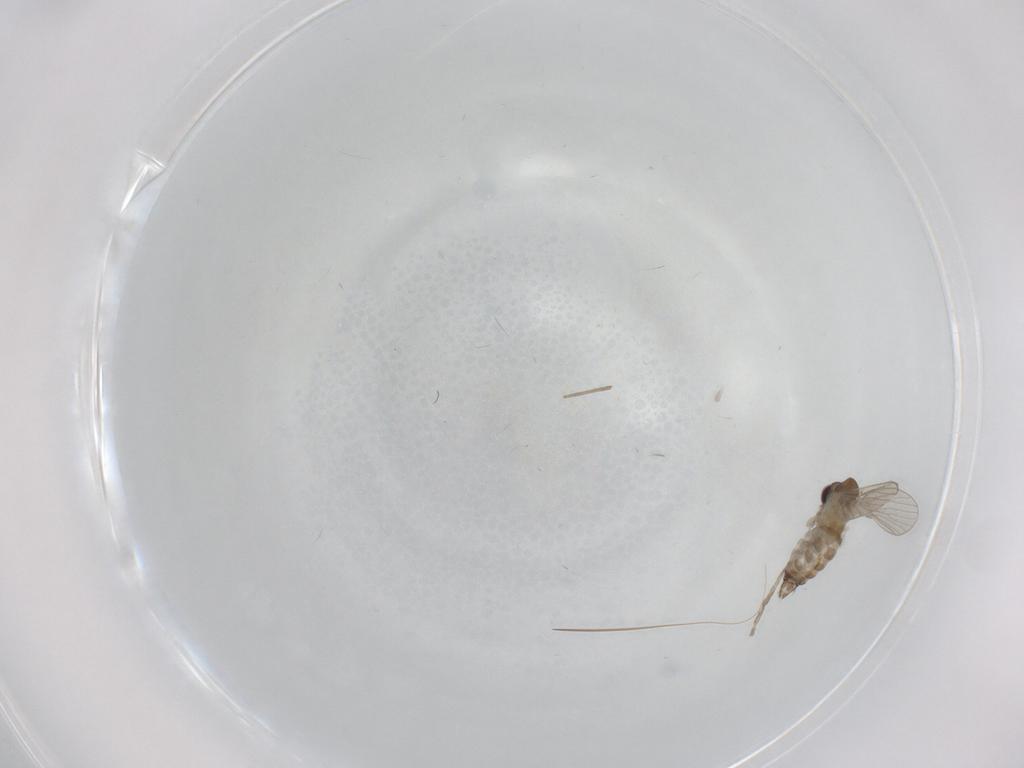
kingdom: Animalia
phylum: Arthropoda
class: Insecta
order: Diptera
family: Psychodidae
